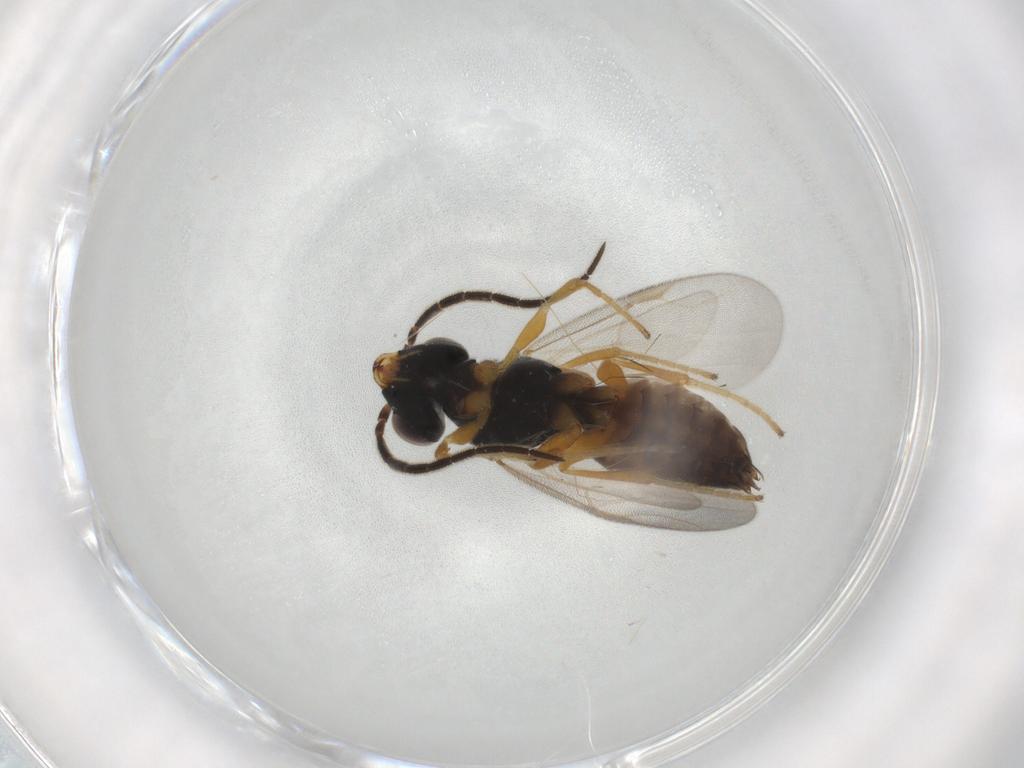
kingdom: Animalia
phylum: Arthropoda
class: Insecta
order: Hymenoptera
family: Dryinidae
